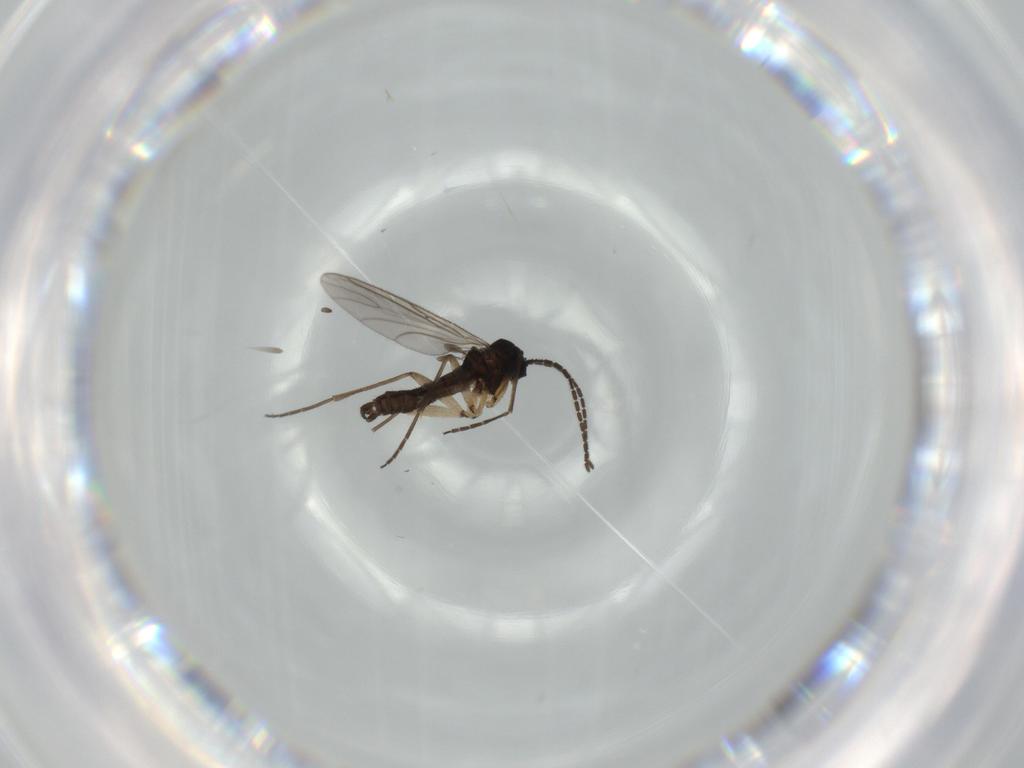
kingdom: Animalia
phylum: Arthropoda
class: Insecta
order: Diptera
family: Sciaridae
